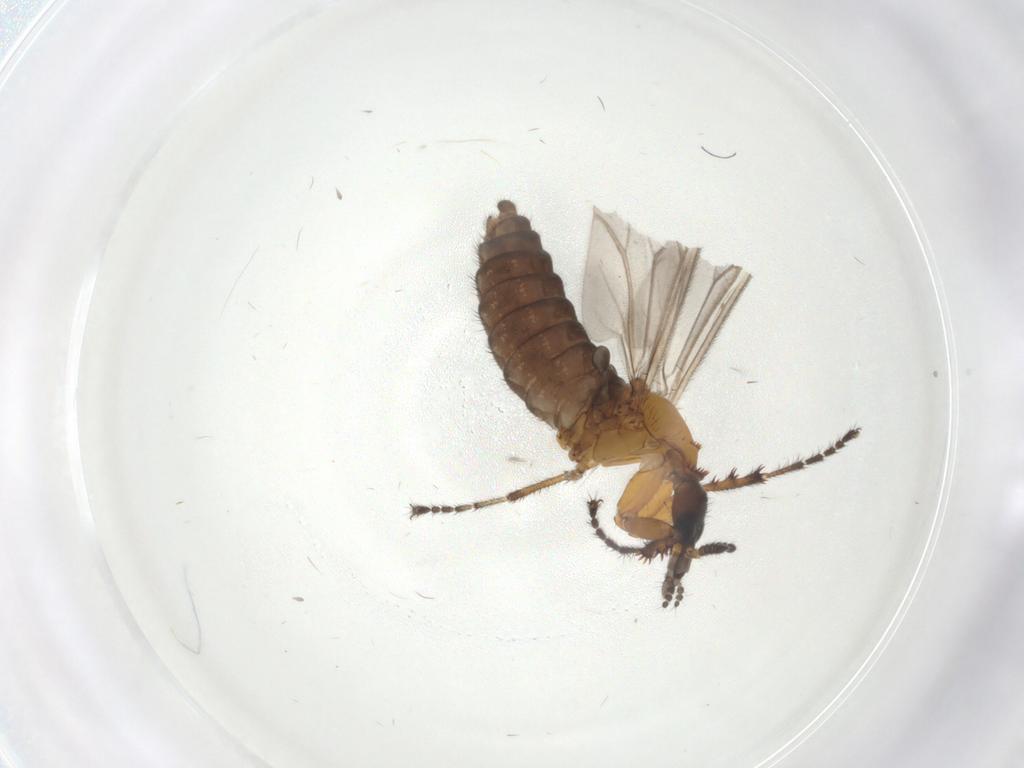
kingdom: Animalia
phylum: Arthropoda
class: Insecta
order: Diptera
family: Bibionidae
